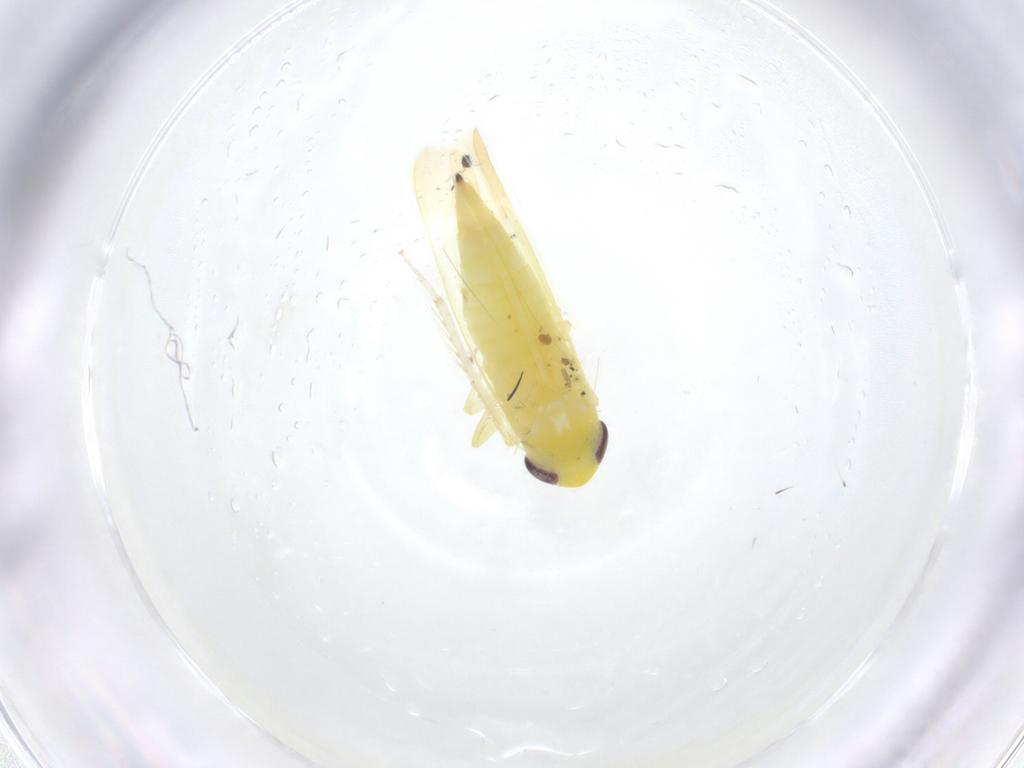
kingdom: Animalia
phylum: Arthropoda
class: Insecta
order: Hemiptera
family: Cicadellidae
